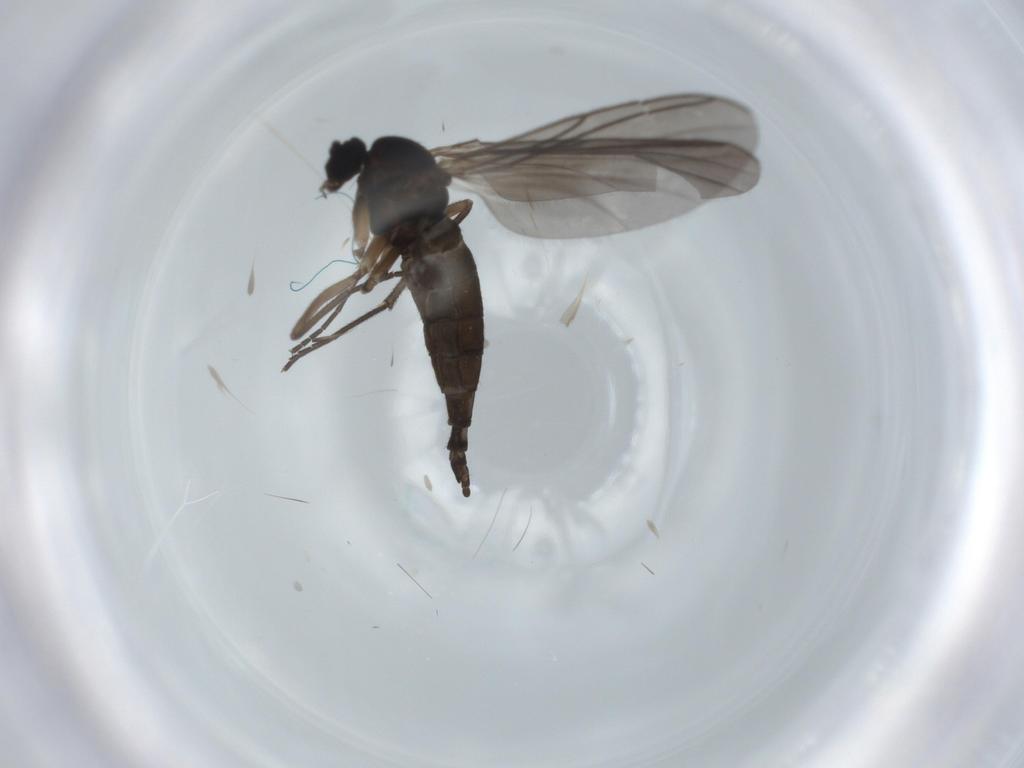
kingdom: Animalia
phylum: Arthropoda
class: Insecta
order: Diptera
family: Sciaridae
